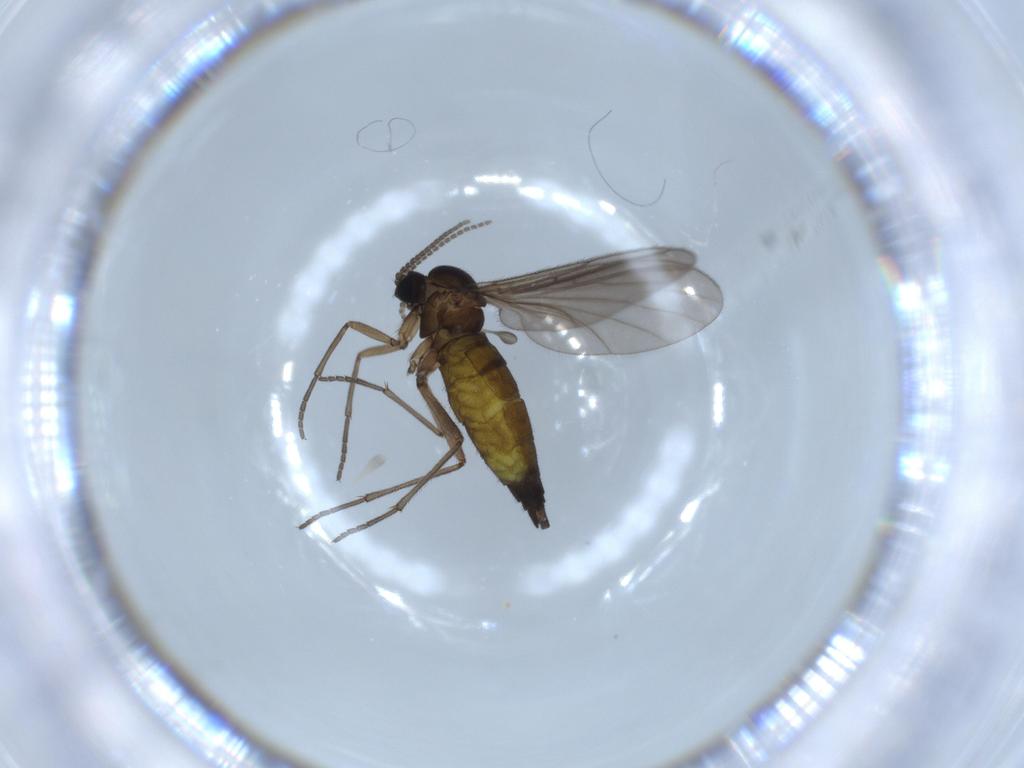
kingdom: Animalia
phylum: Arthropoda
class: Insecta
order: Diptera
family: Sciaridae
